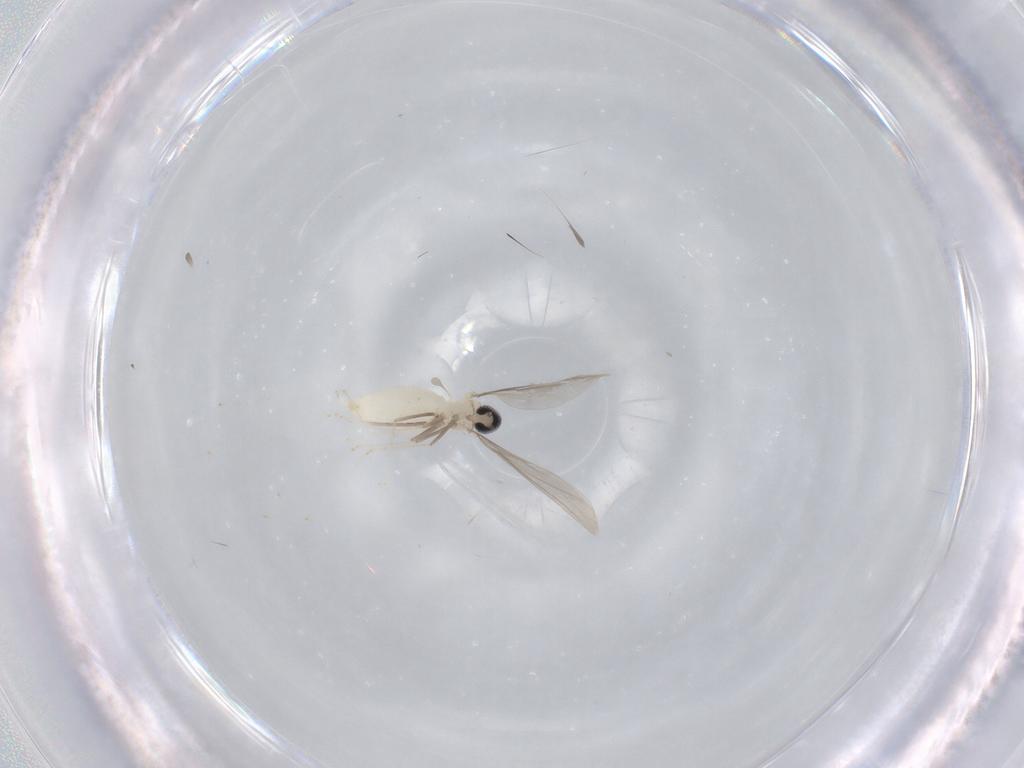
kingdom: Animalia
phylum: Arthropoda
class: Insecta
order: Diptera
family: Cecidomyiidae
